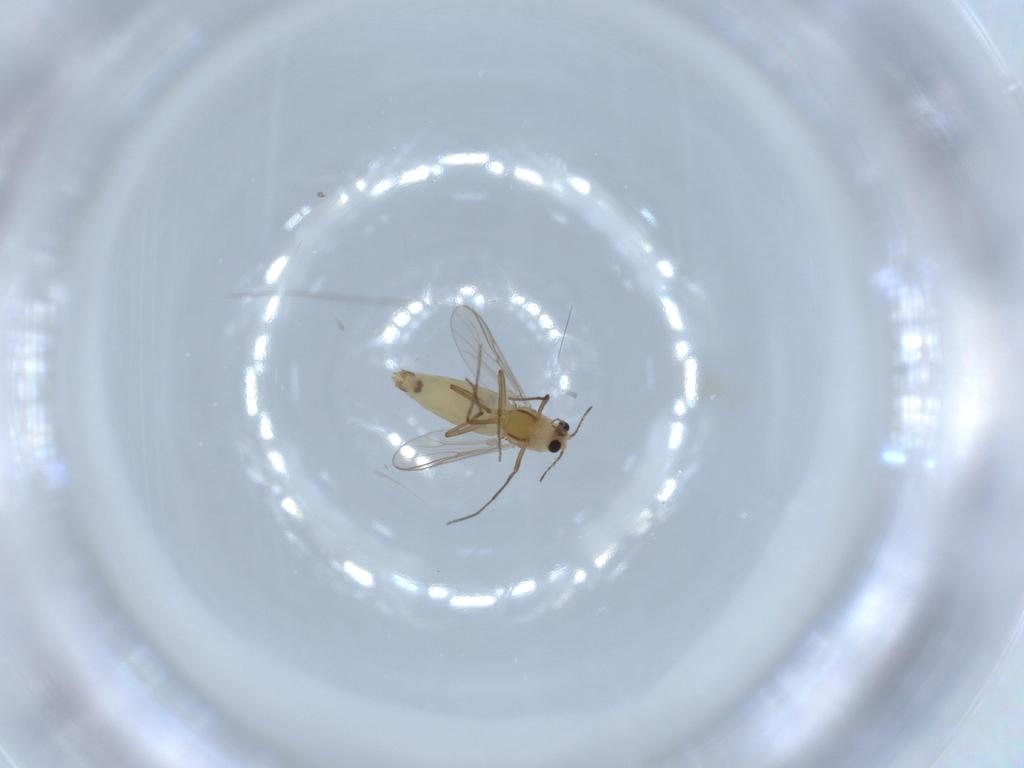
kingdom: Animalia
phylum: Arthropoda
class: Insecta
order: Diptera
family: Chironomidae
